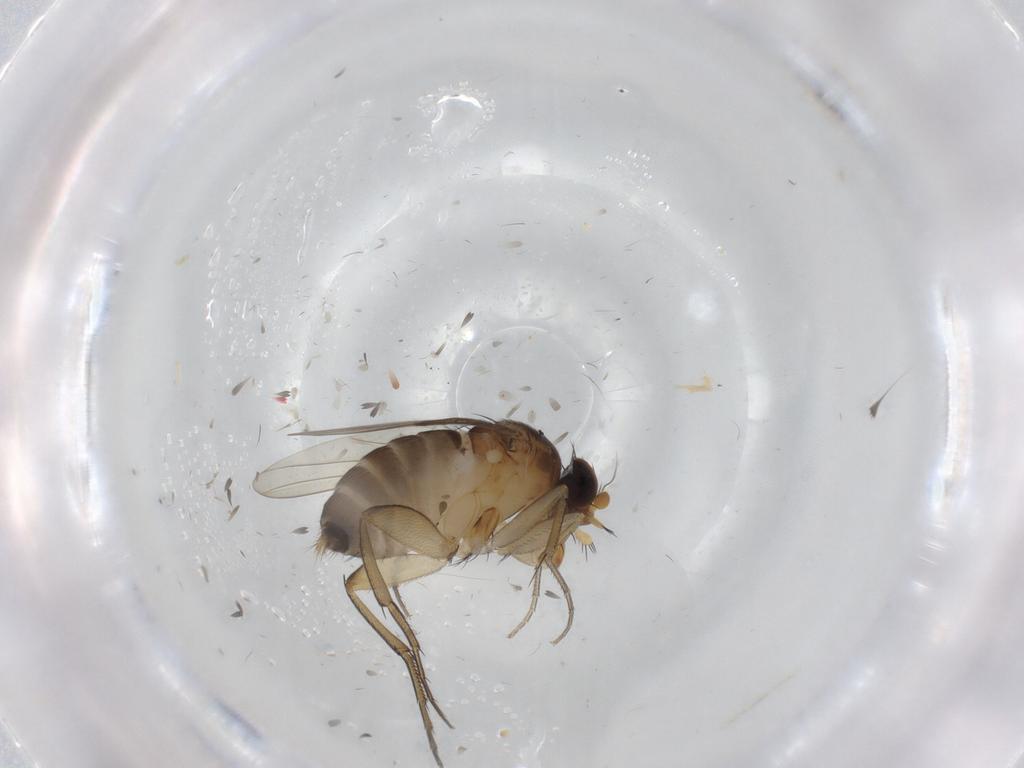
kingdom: Animalia
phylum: Arthropoda
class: Insecta
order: Diptera
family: Phoridae
